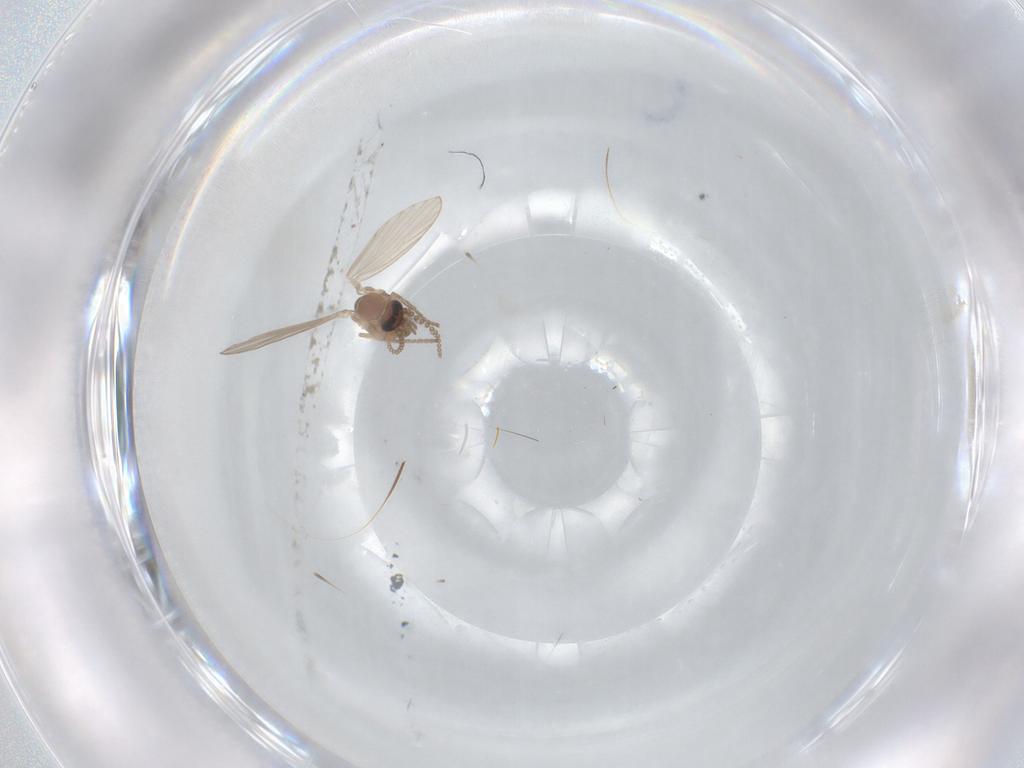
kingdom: Animalia
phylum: Arthropoda
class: Insecta
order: Diptera
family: Psychodidae
